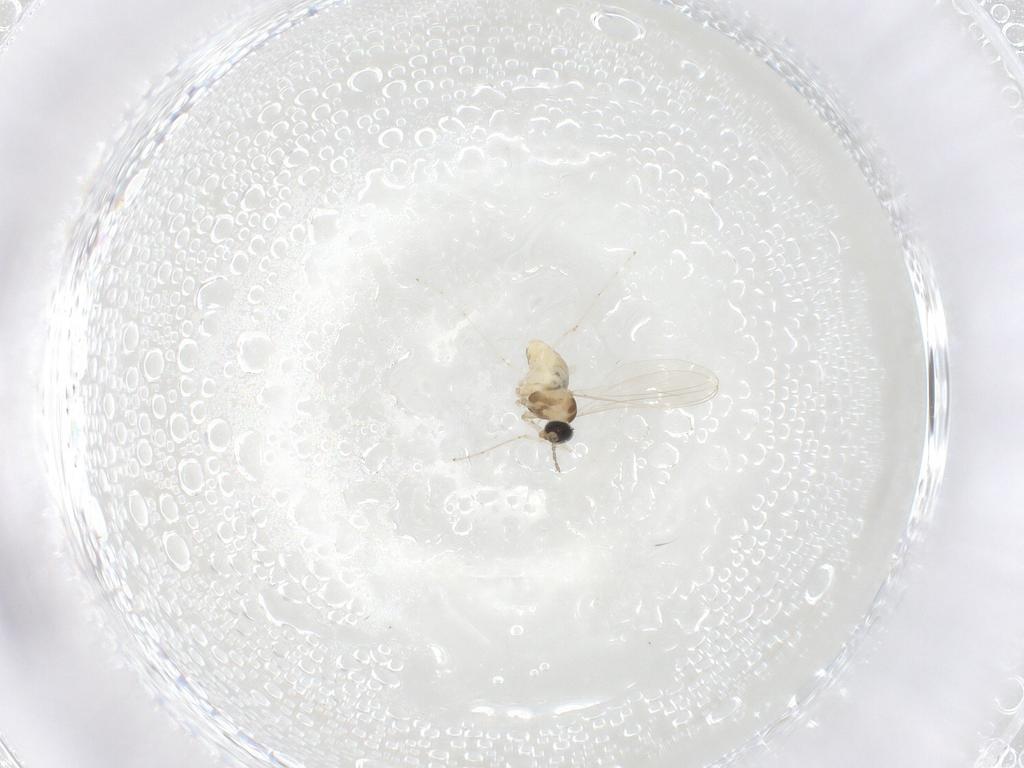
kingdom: Animalia
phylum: Arthropoda
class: Insecta
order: Diptera
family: Cecidomyiidae
